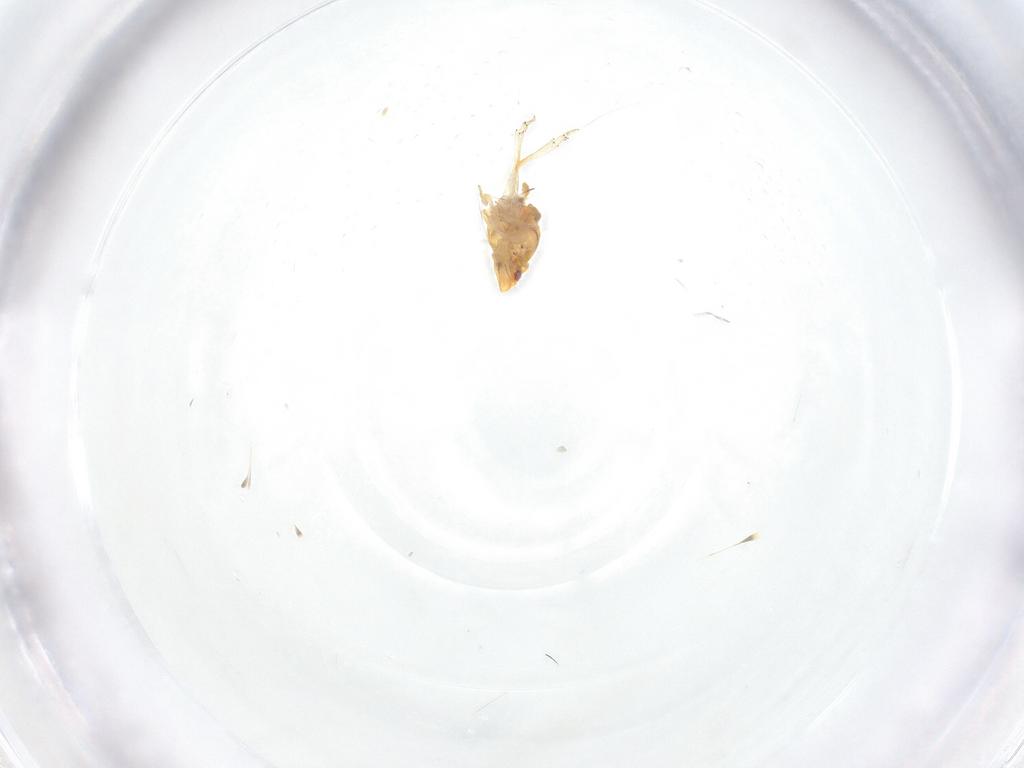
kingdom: Animalia
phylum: Arthropoda
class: Insecta
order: Hemiptera
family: Ricaniidae
